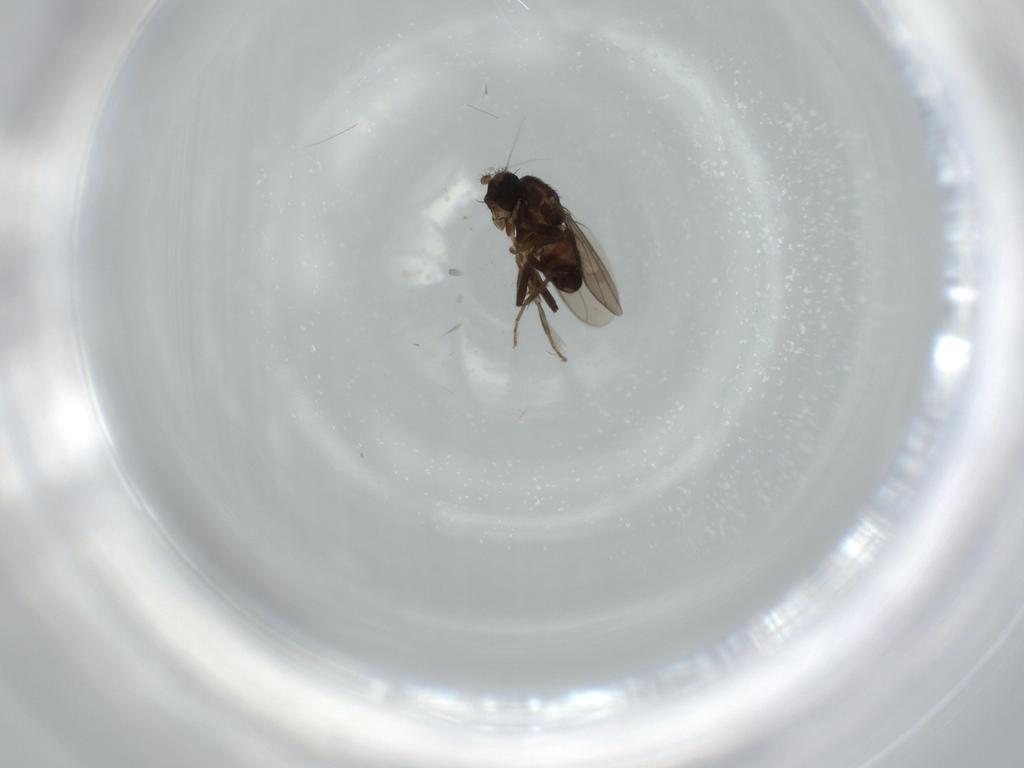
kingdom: Animalia
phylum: Arthropoda
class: Insecta
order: Diptera
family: Sphaeroceridae
